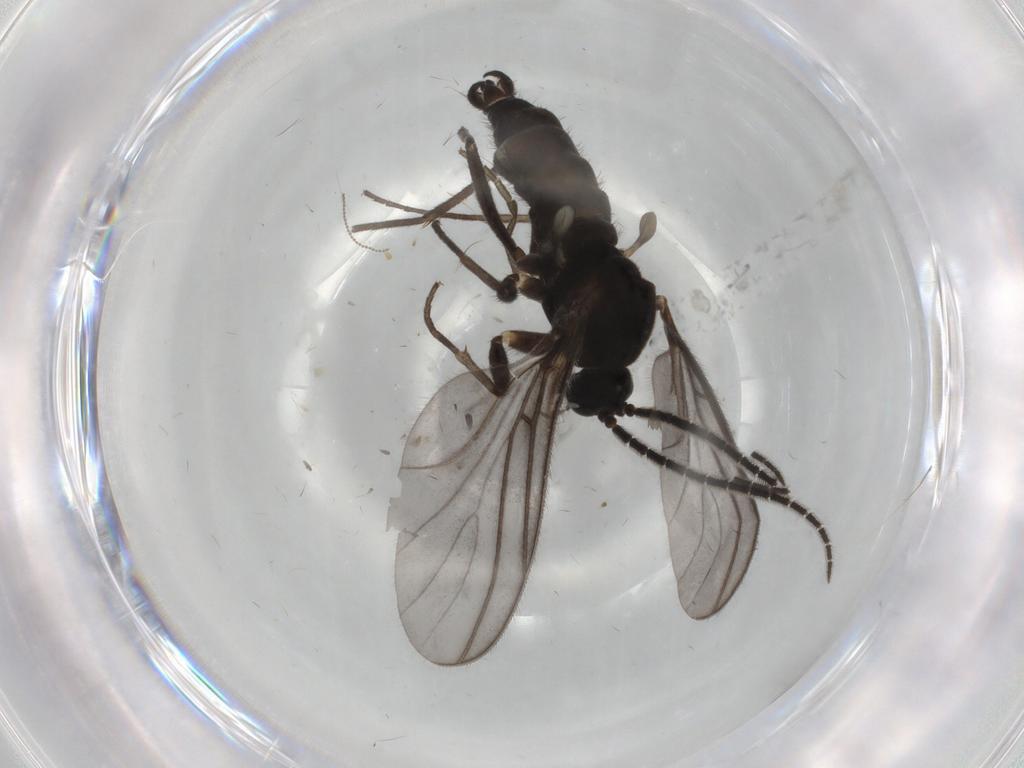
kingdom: Animalia
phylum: Arthropoda
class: Insecta
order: Diptera
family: Sciaridae
